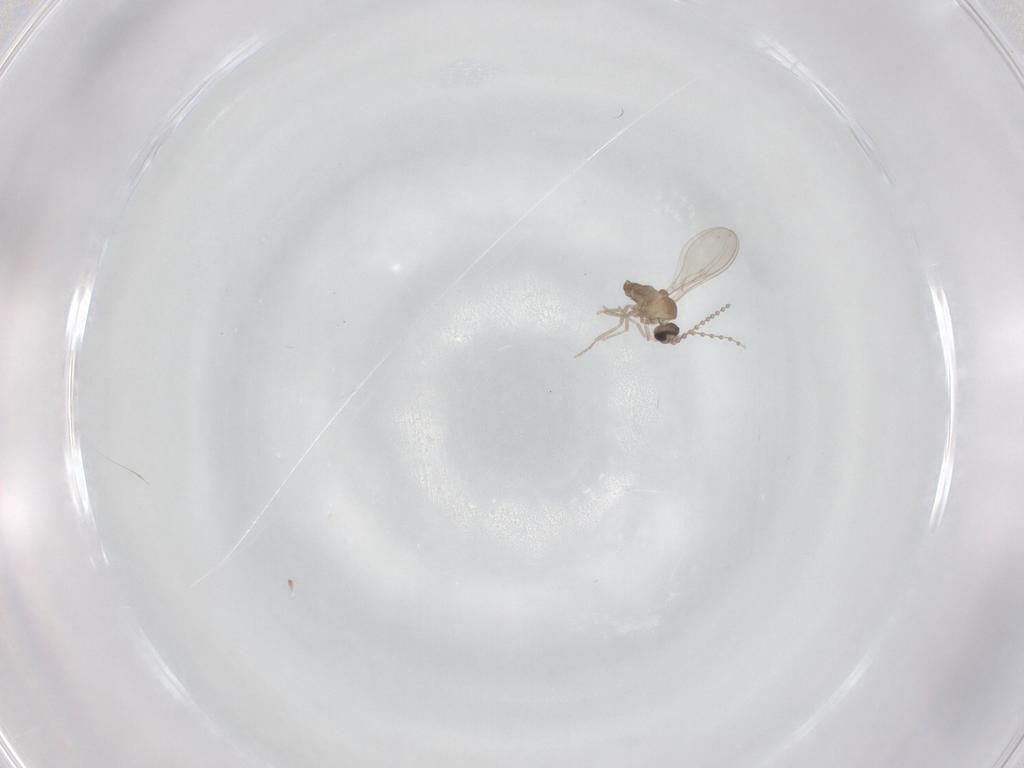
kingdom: Animalia
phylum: Arthropoda
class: Insecta
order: Diptera
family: Cecidomyiidae
